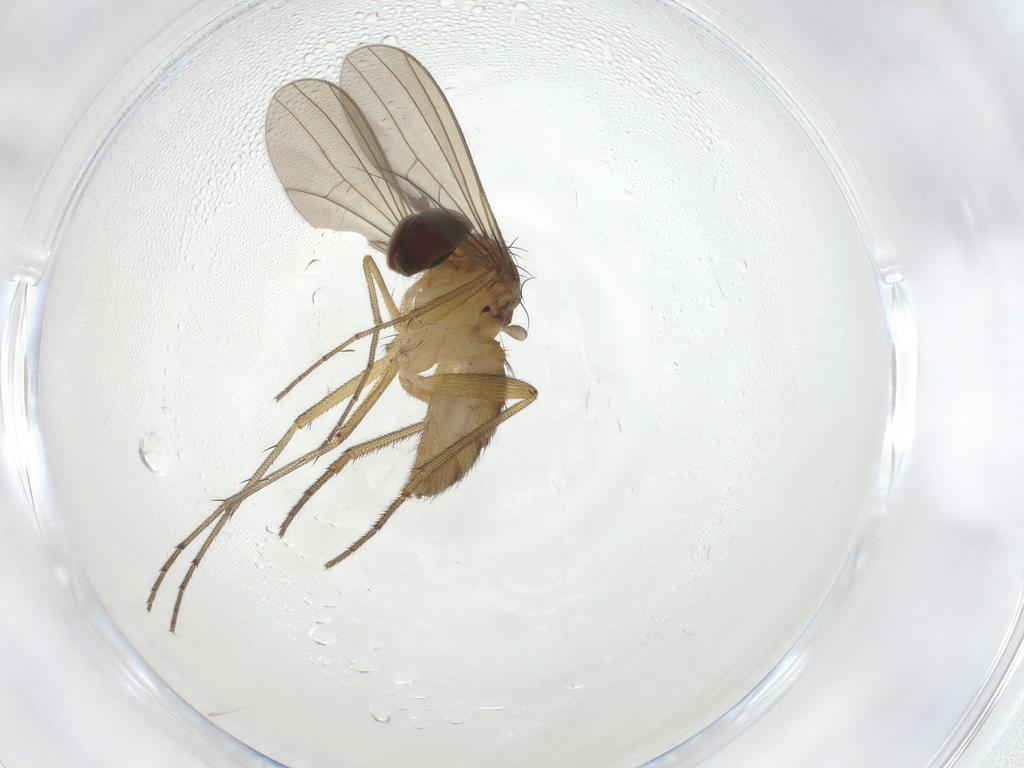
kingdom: Animalia
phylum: Arthropoda
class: Insecta
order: Diptera
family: Dolichopodidae
